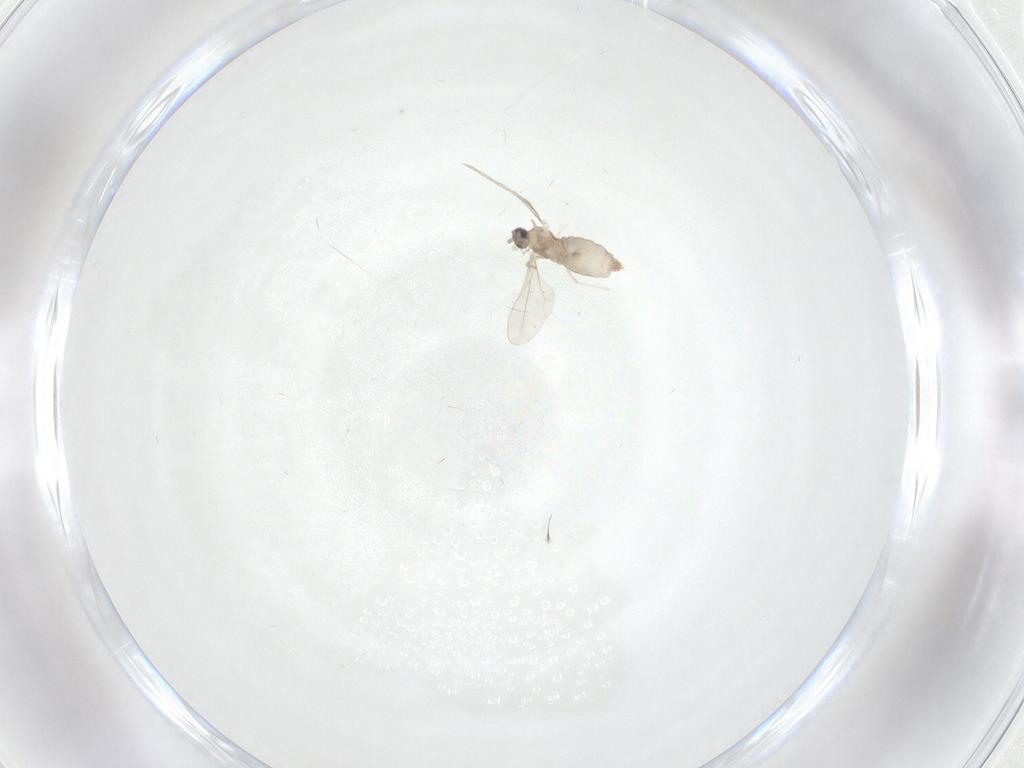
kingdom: Animalia
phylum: Arthropoda
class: Insecta
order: Diptera
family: Cecidomyiidae
